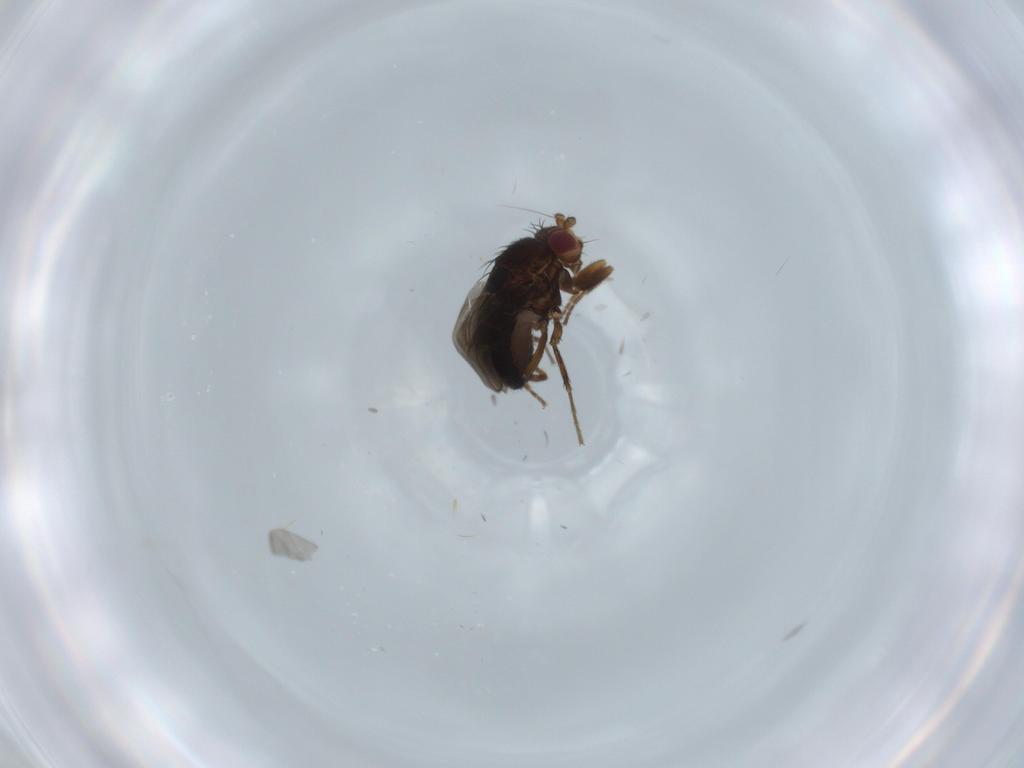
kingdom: Animalia
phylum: Arthropoda
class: Insecta
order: Diptera
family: Sphaeroceridae
